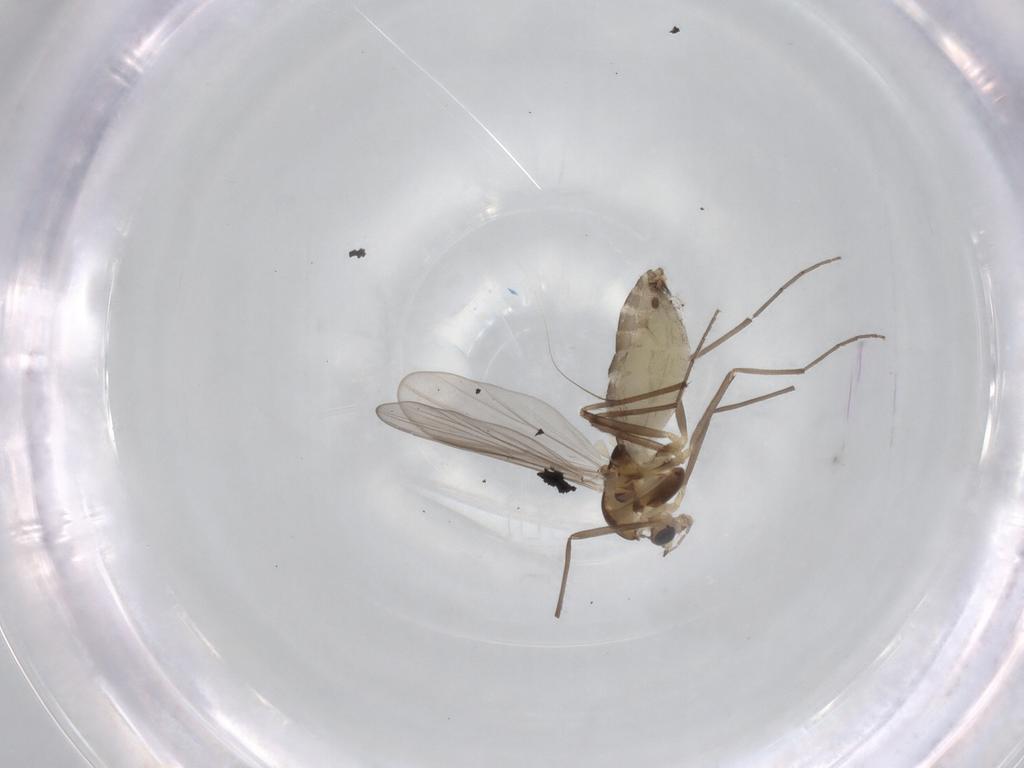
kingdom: Animalia
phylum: Arthropoda
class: Insecta
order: Diptera
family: Chironomidae
